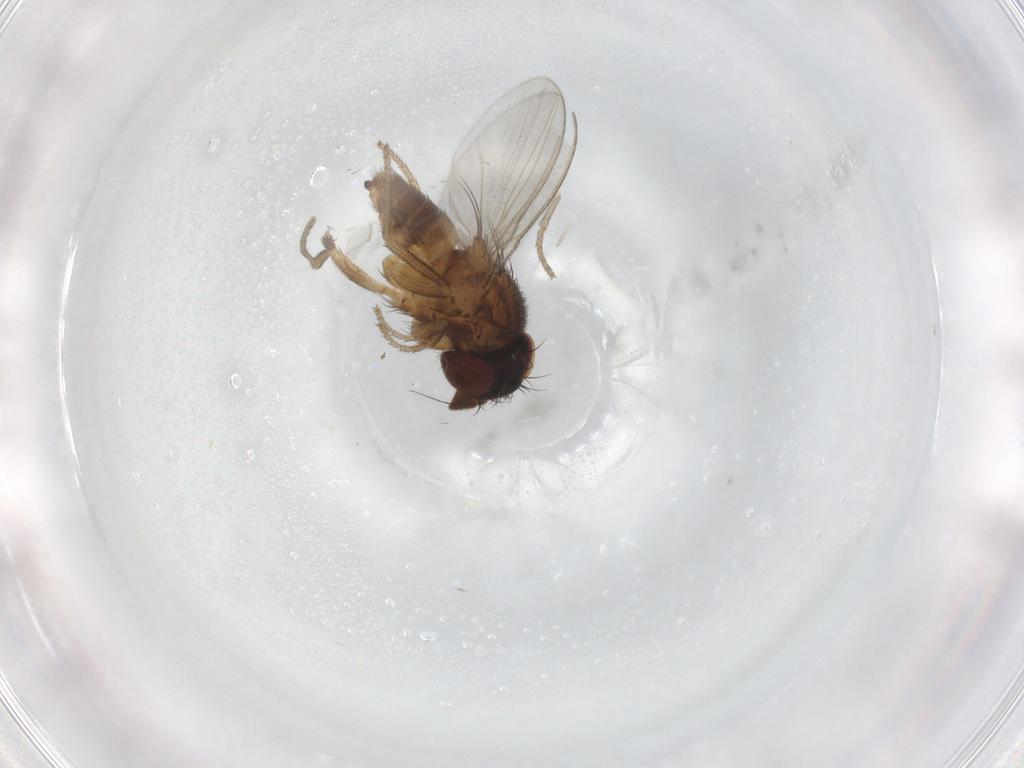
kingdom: Animalia
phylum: Arthropoda
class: Insecta
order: Diptera
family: Milichiidae
